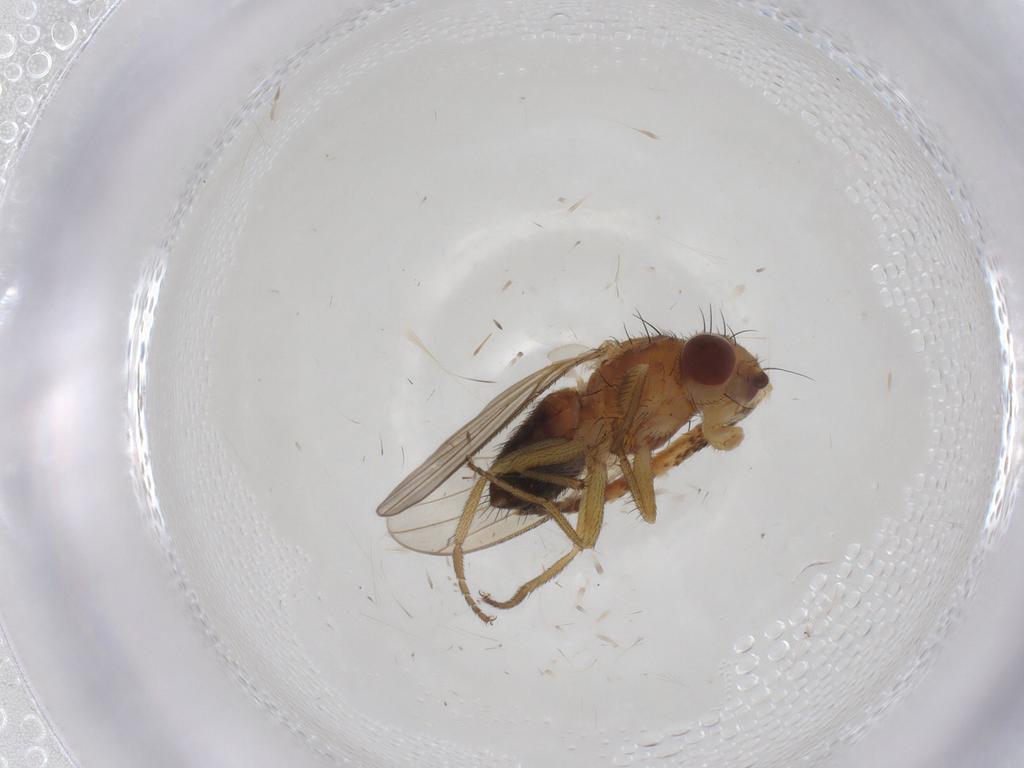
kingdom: Animalia
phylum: Arthropoda
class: Insecta
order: Diptera
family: Heleomyzidae
